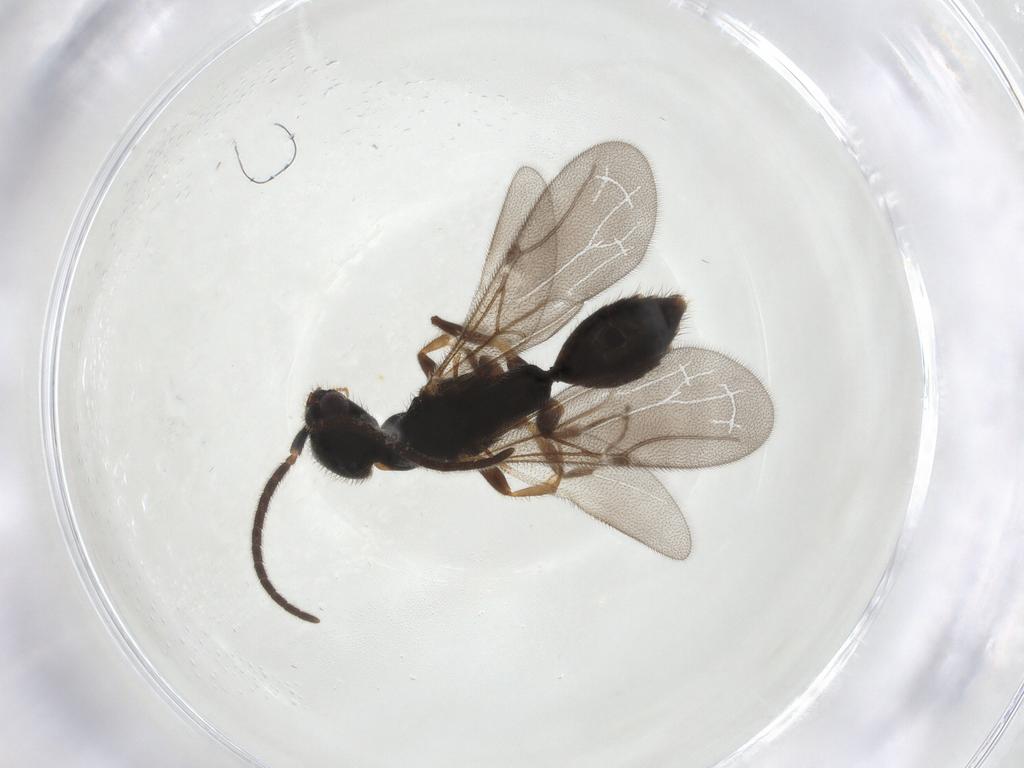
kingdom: Animalia
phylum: Arthropoda
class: Insecta
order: Hymenoptera
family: Bethylidae
